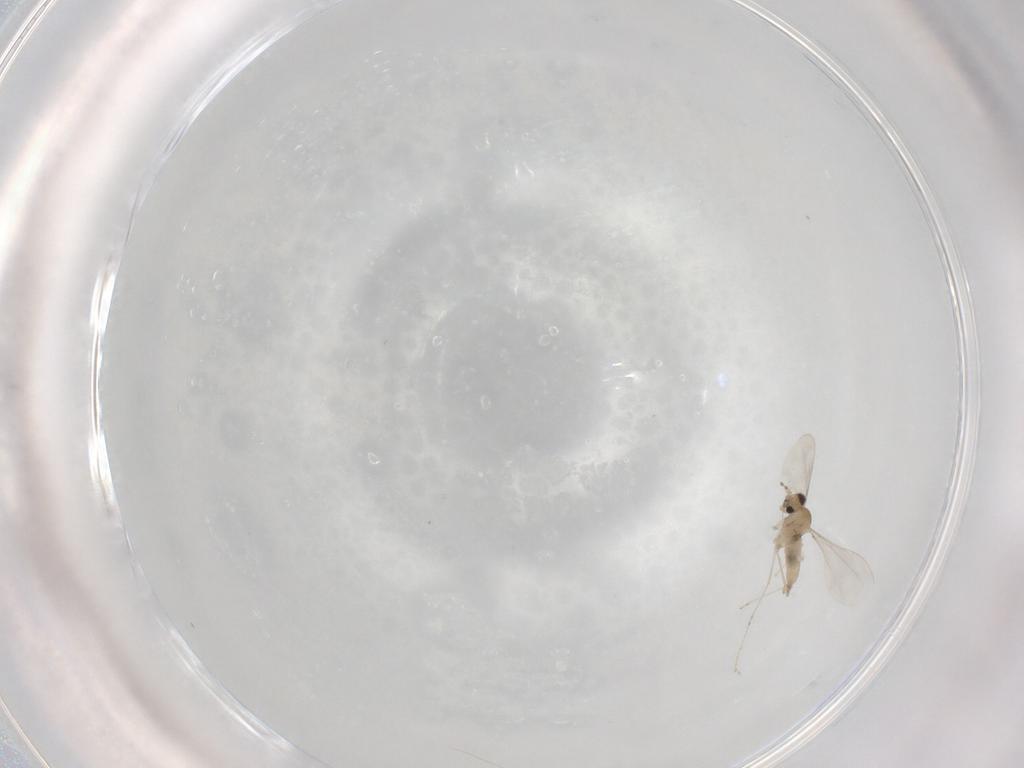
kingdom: Animalia
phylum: Arthropoda
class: Insecta
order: Diptera
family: Cecidomyiidae
